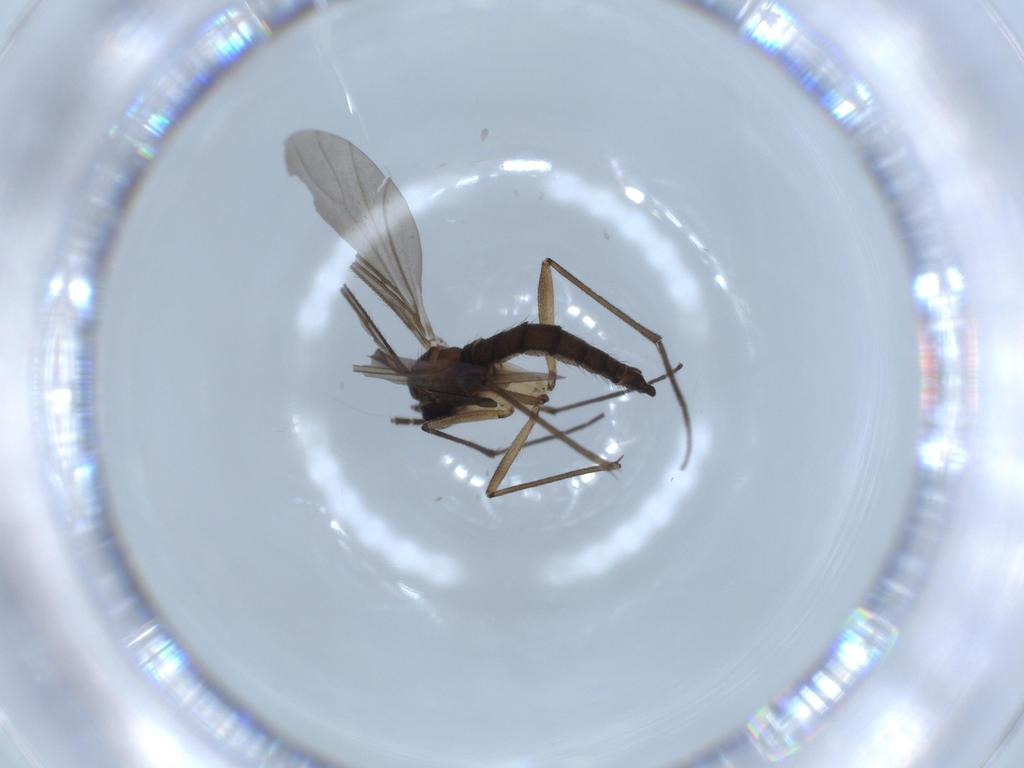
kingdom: Animalia
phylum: Arthropoda
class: Insecta
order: Diptera
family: Sciaridae
